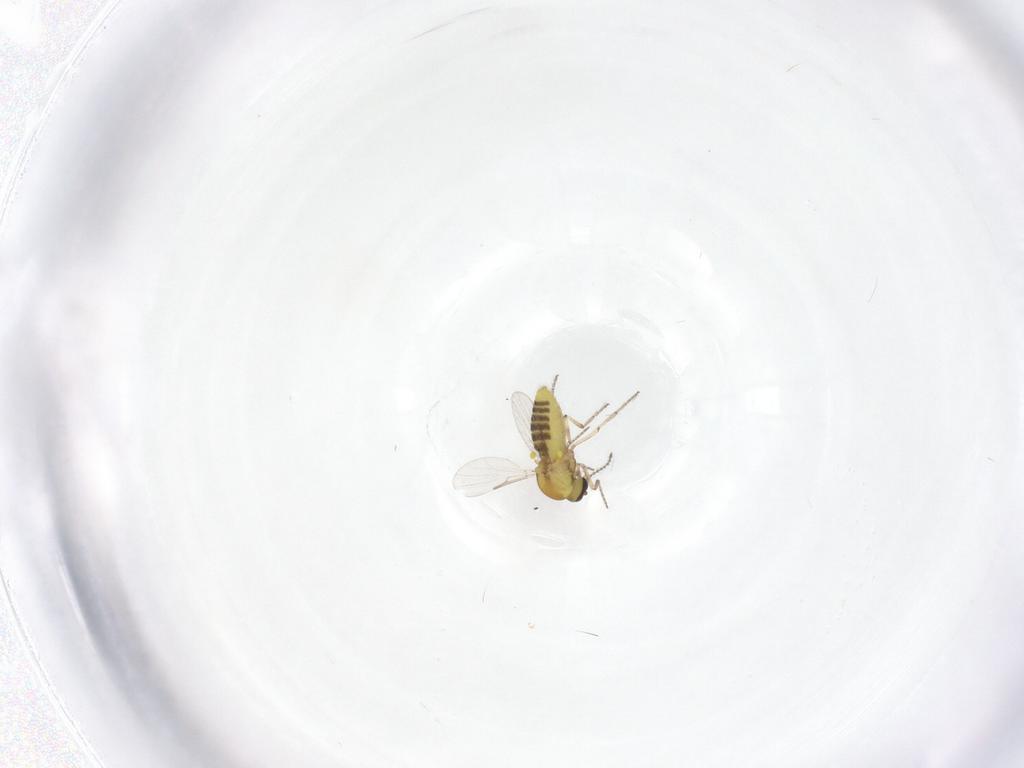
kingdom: Animalia
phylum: Arthropoda
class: Insecta
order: Diptera
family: Ceratopogonidae
